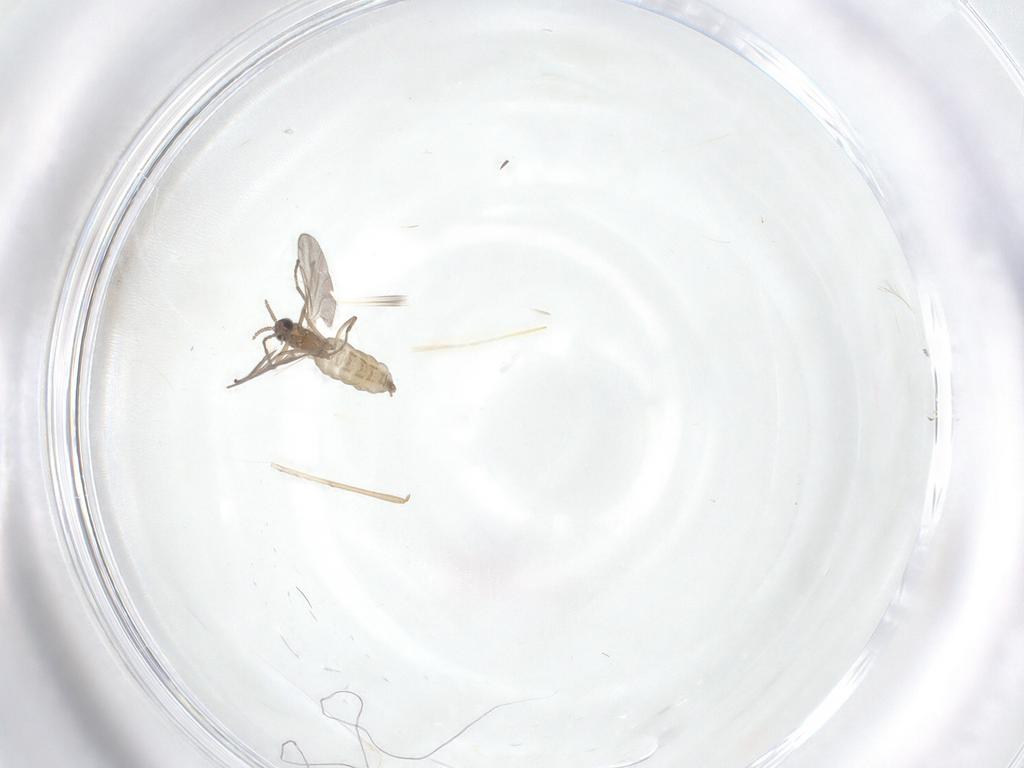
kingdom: Animalia
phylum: Arthropoda
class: Insecta
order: Diptera
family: Cecidomyiidae
